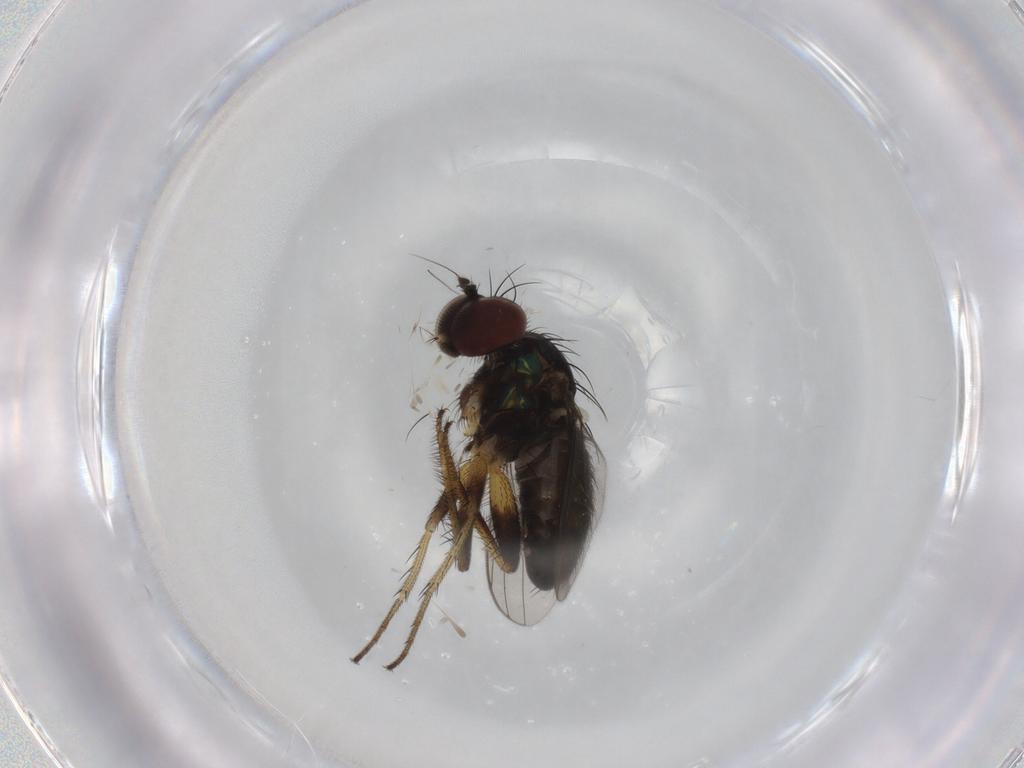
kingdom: Animalia
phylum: Arthropoda
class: Insecta
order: Diptera
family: Dolichopodidae
